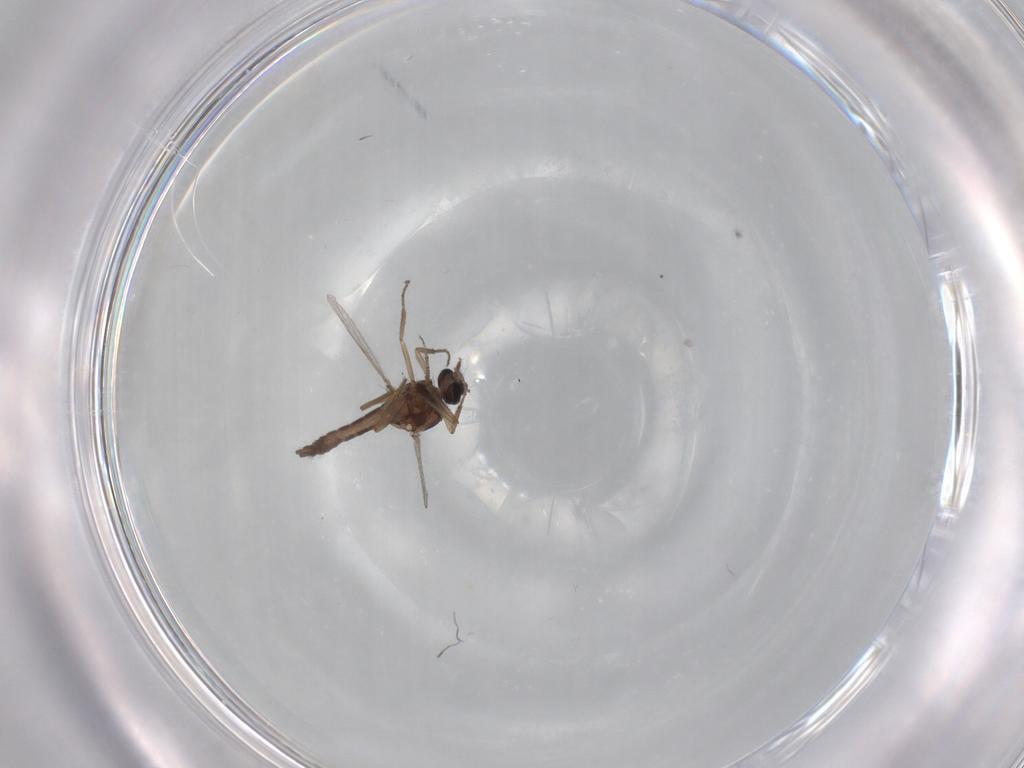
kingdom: Animalia
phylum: Arthropoda
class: Insecta
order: Diptera
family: Ceratopogonidae
